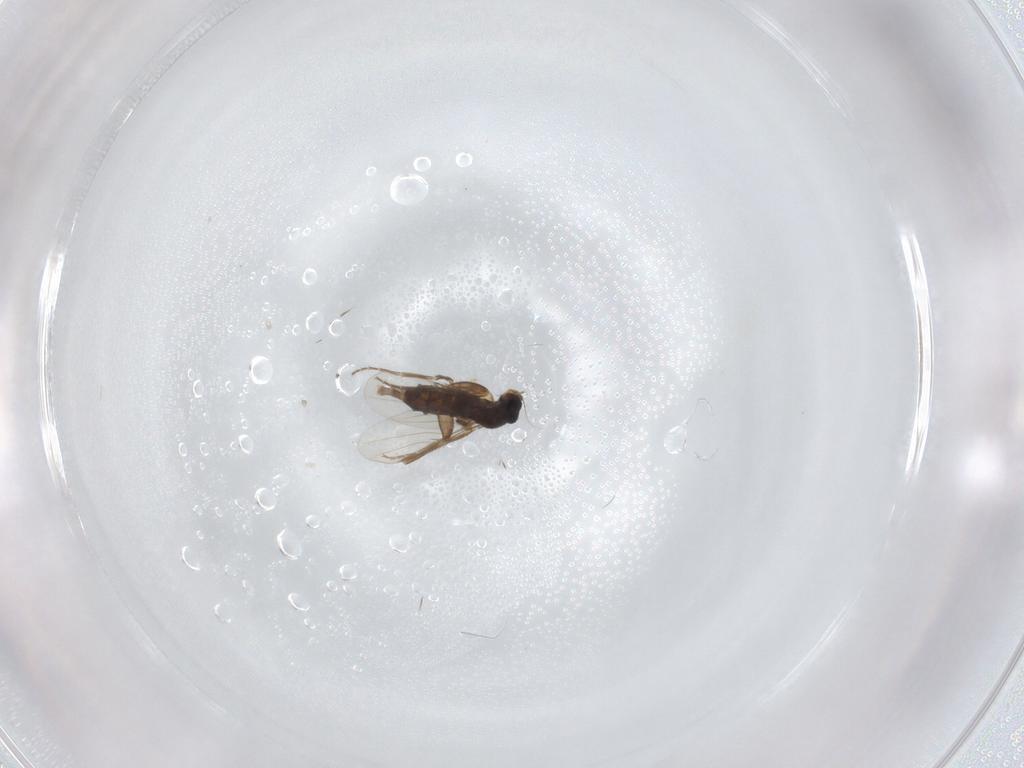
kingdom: Animalia
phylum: Arthropoda
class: Insecta
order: Diptera
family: Phoridae
